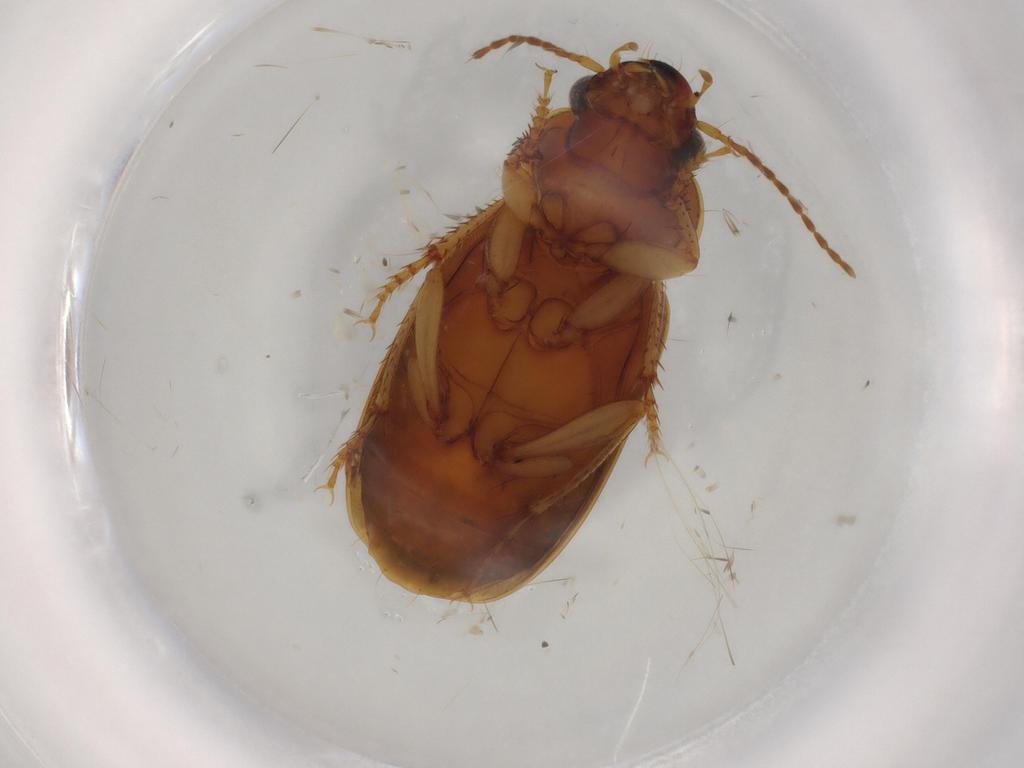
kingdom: Animalia
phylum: Arthropoda
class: Insecta
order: Coleoptera
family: Carabidae
